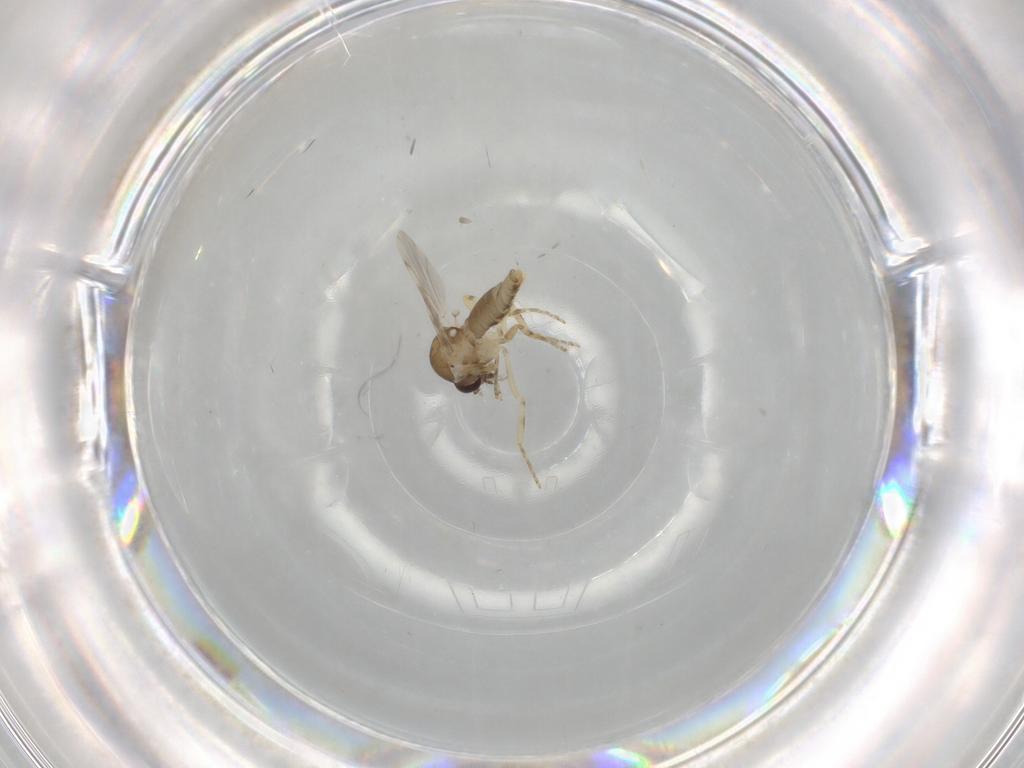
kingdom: Animalia
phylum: Arthropoda
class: Insecta
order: Diptera
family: Ceratopogonidae
